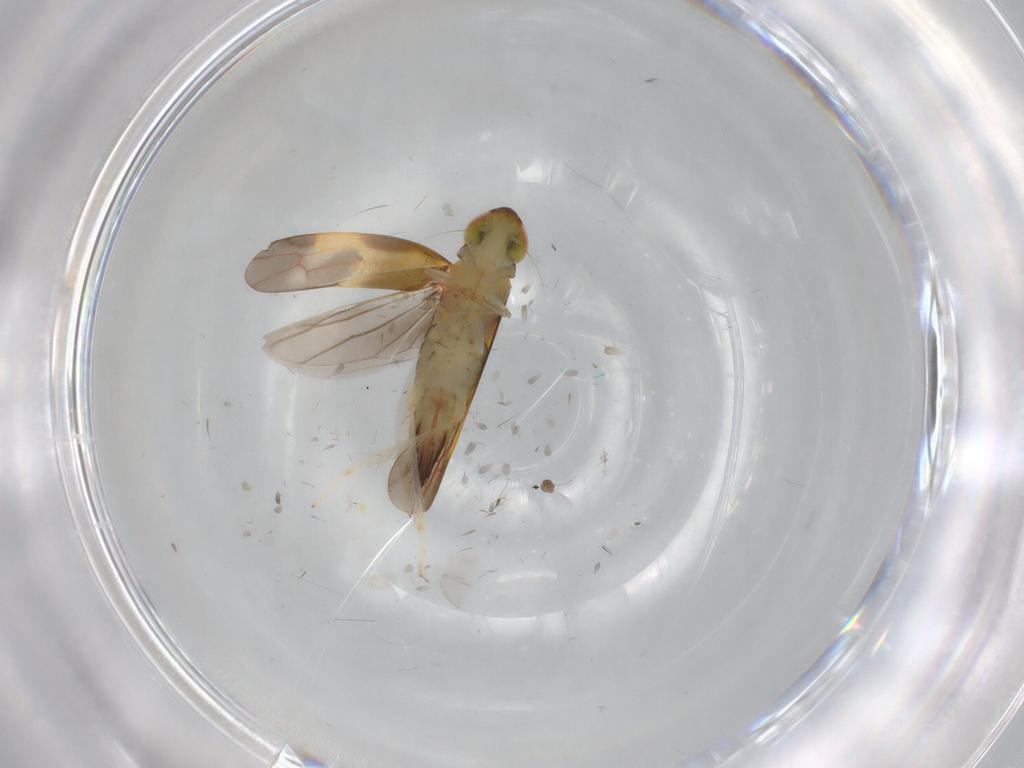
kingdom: Animalia
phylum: Arthropoda
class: Insecta
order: Hemiptera
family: Cicadellidae
